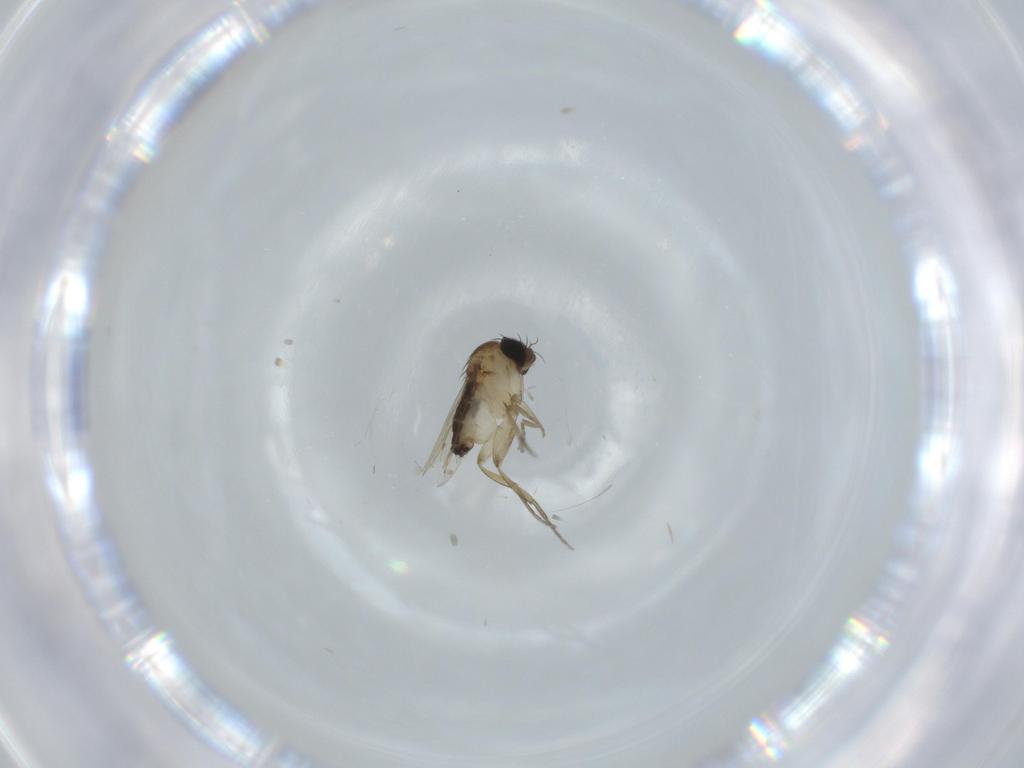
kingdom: Animalia
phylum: Arthropoda
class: Insecta
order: Diptera
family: Phoridae
